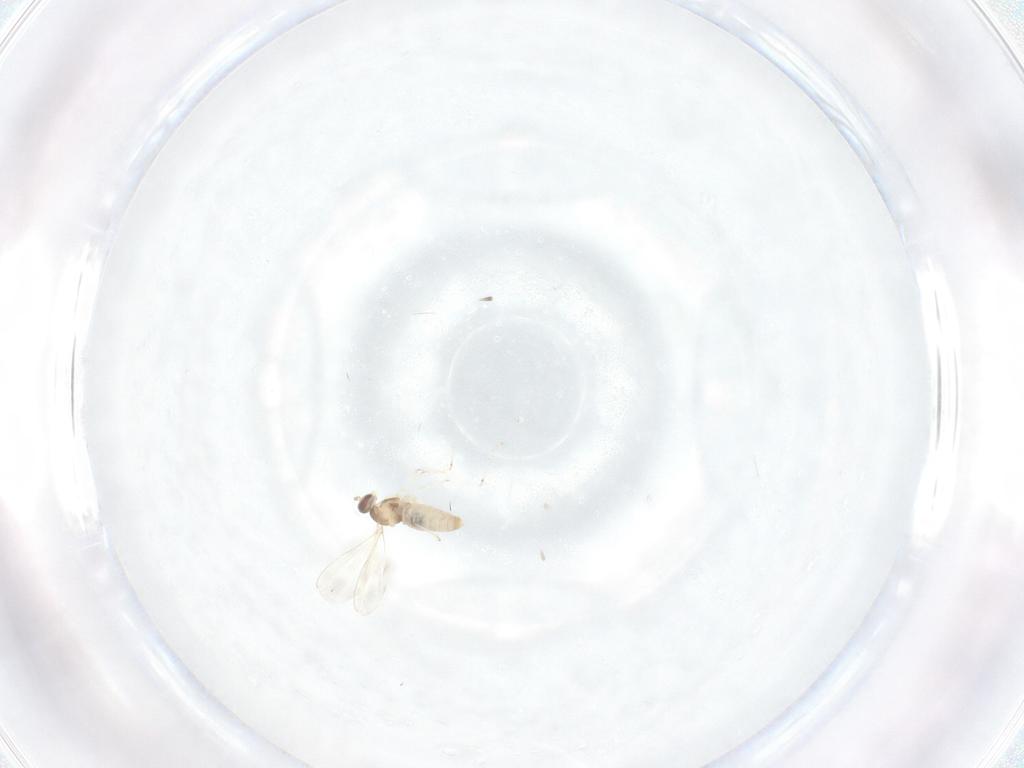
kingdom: Animalia
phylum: Arthropoda
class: Insecta
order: Diptera
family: Cecidomyiidae
